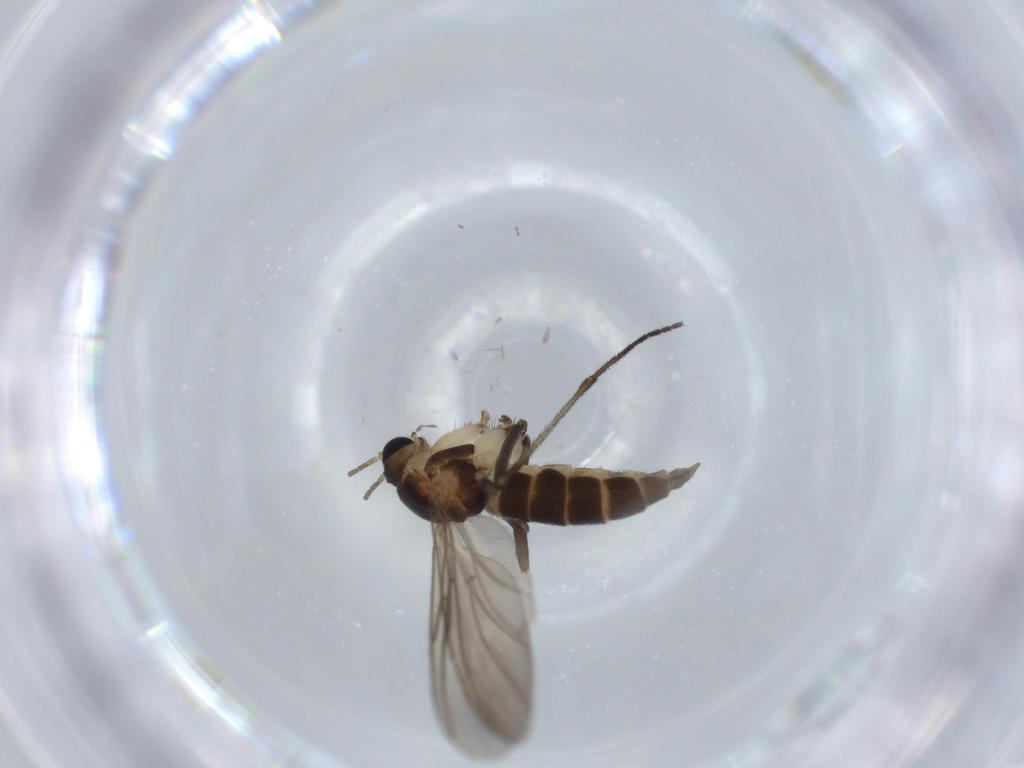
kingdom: Animalia
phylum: Arthropoda
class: Insecta
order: Diptera
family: Sciaridae
